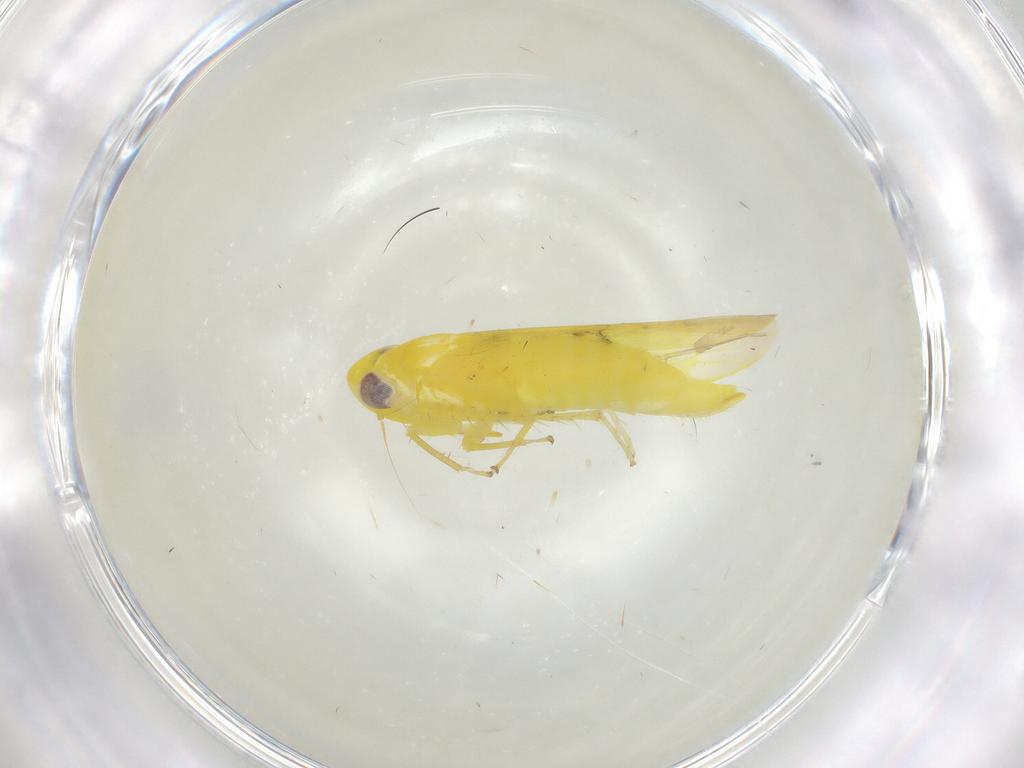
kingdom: Animalia
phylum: Arthropoda
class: Insecta
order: Hemiptera
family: Cicadellidae
